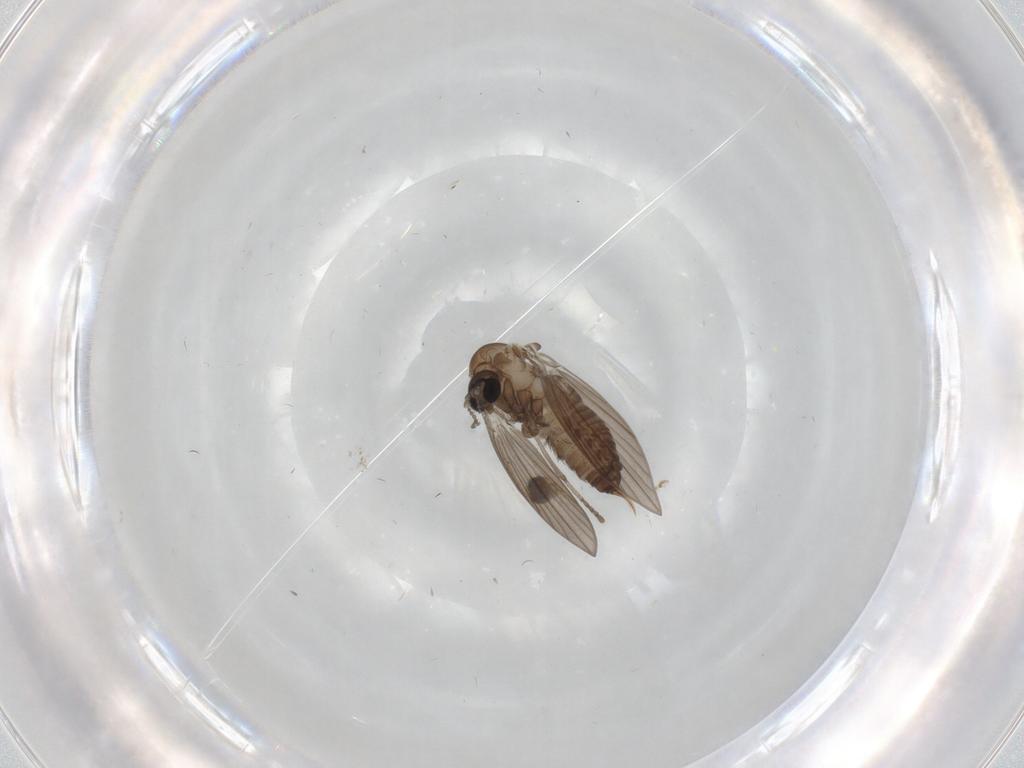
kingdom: Animalia
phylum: Arthropoda
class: Insecta
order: Diptera
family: Psychodidae
